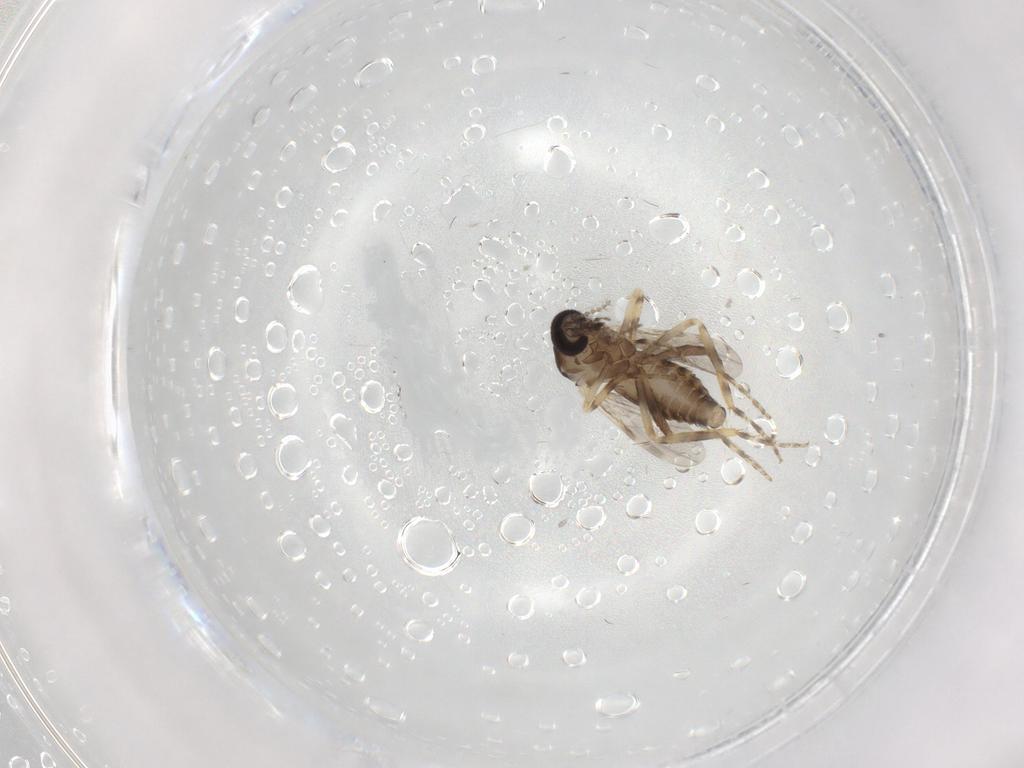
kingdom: Animalia
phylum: Arthropoda
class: Insecta
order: Diptera
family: Ceratopogonidae
